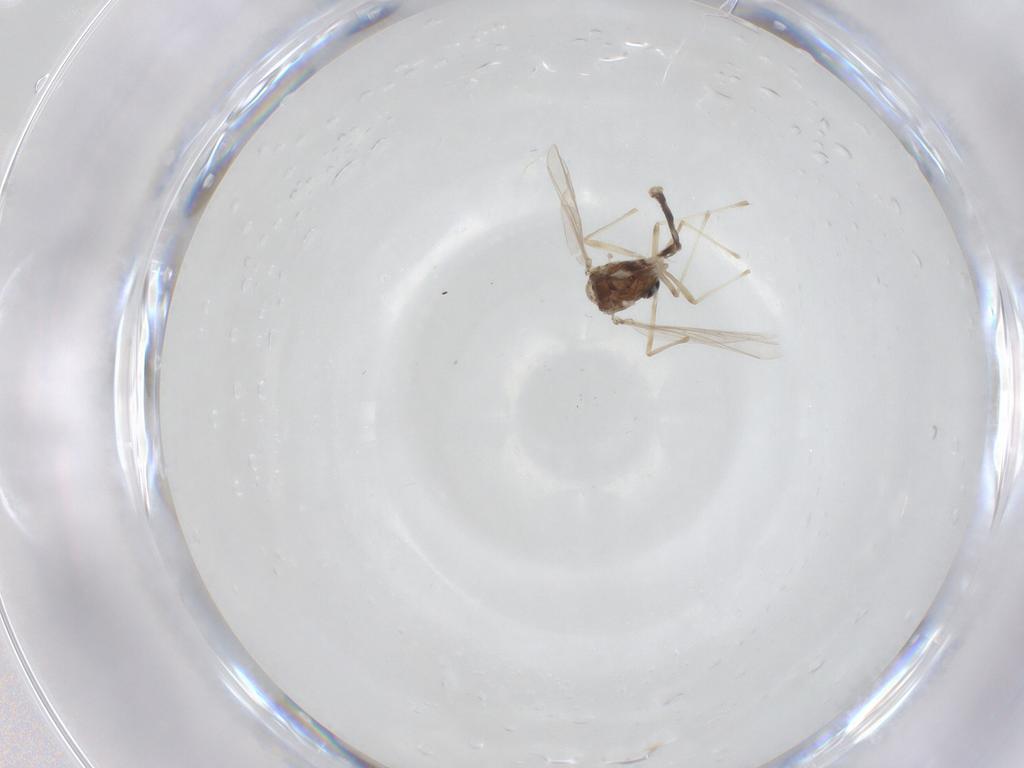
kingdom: Animalia
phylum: Arthropoda
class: Insecta
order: Diptera
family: Chironomidae
